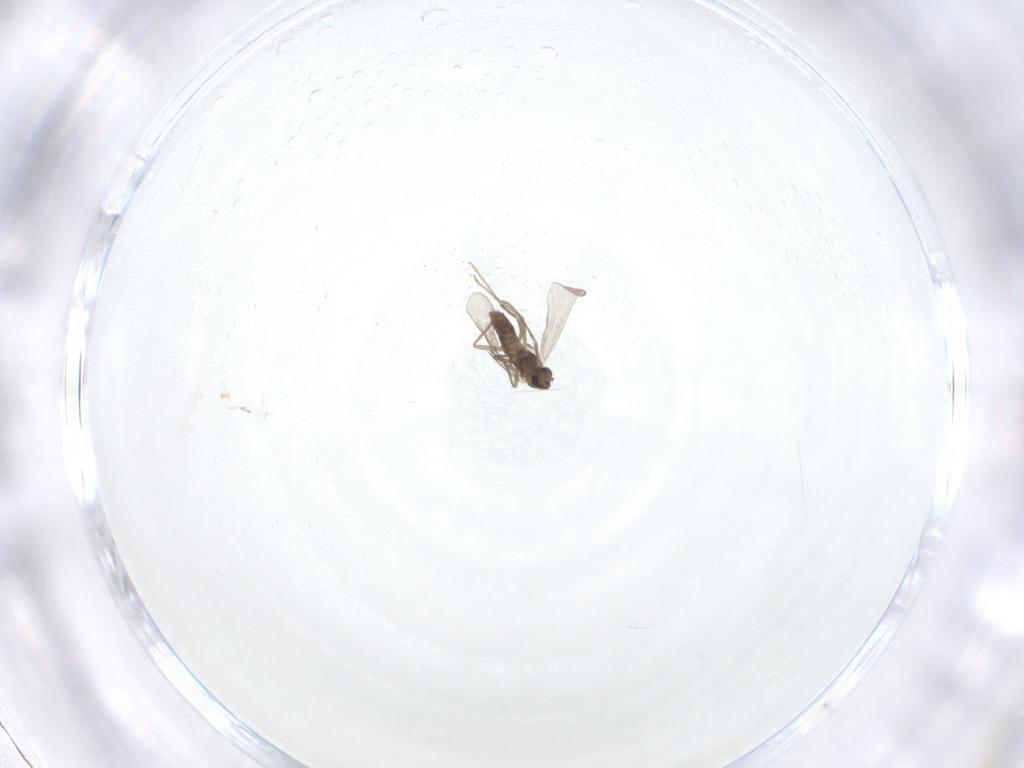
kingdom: Animalia
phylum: Arthropoda
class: Insecta
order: Diptera
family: Chironomidae
